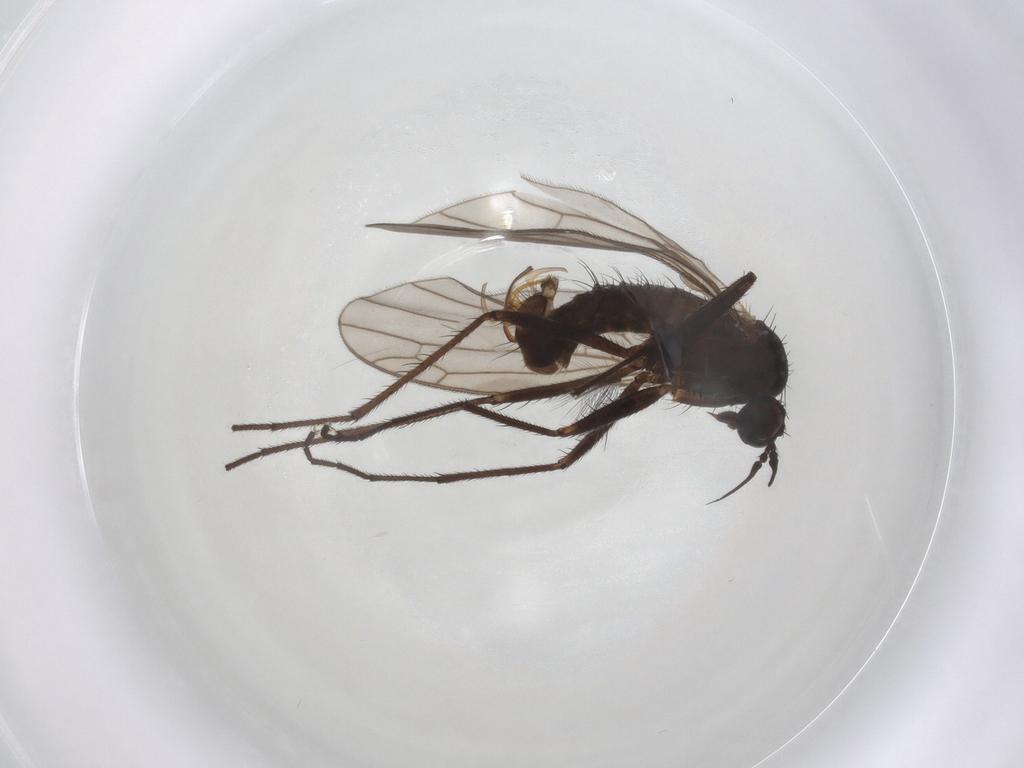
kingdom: Animalia
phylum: Arthropoda
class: Insecta
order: Diptera
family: Empididae
